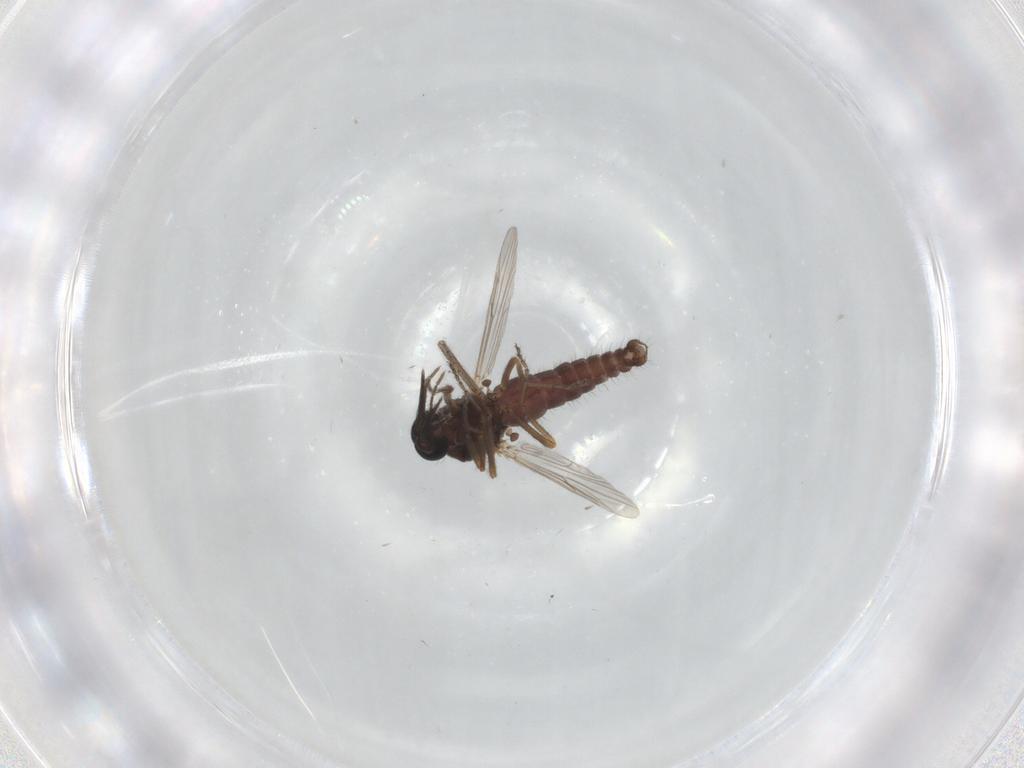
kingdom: Animalia
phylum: Arthropoda
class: Insecta
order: Diptera
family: Ceratopogonidae
